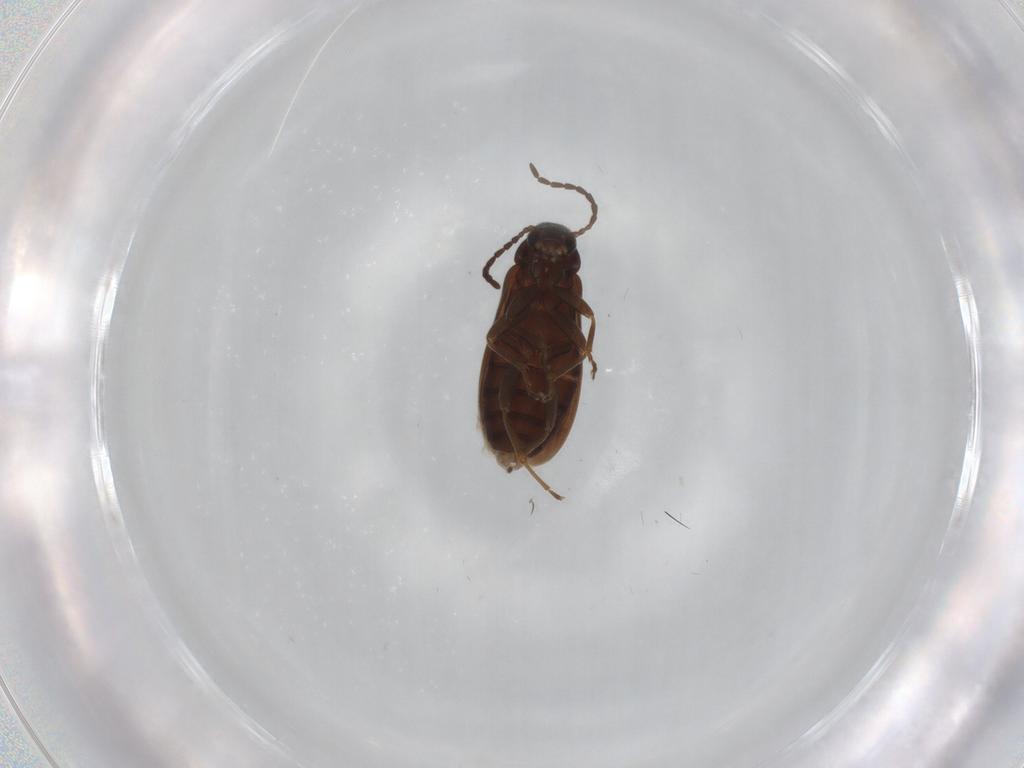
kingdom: Animalia
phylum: Arthropoda
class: Insecta
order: Coleoptera
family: Scraptiidae
